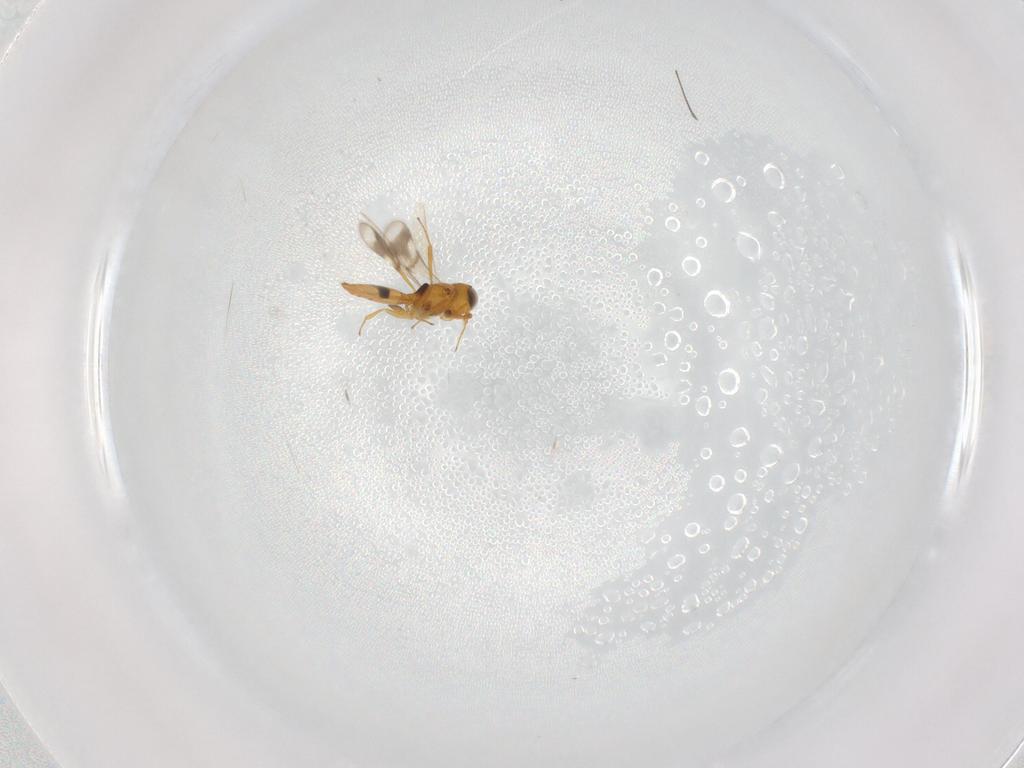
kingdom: Animalia
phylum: Arthropoda
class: Insecta
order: Hymenoptera
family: Scelionidae
